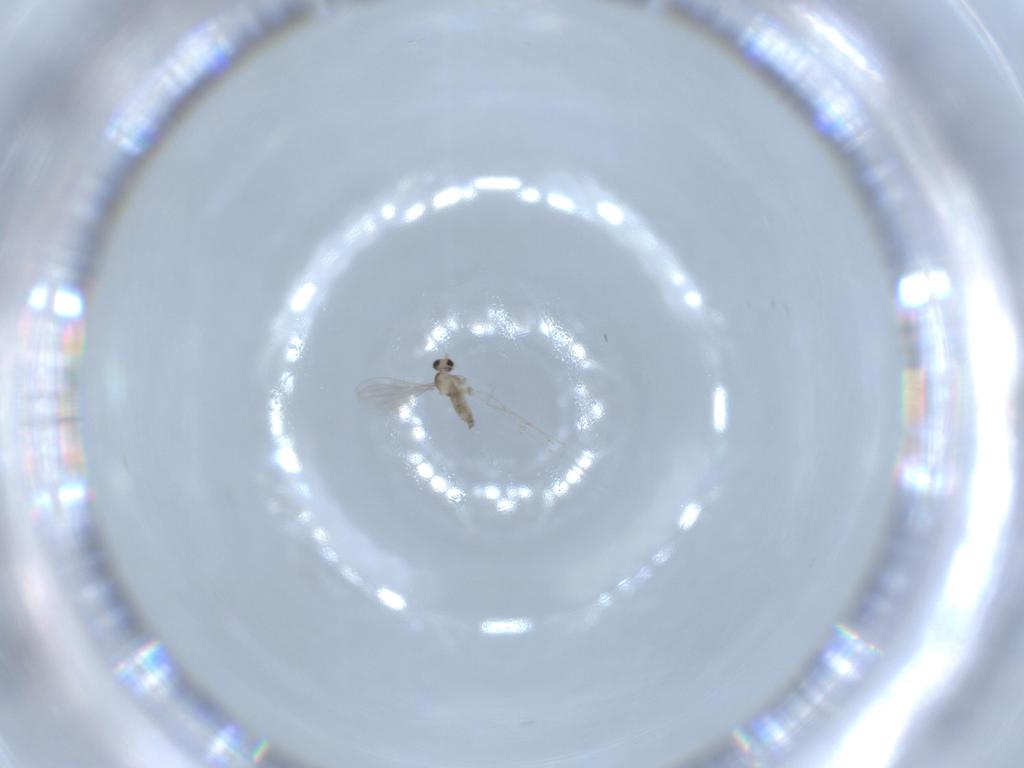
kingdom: Animalia
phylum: Arthropoda
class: Insecta
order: Diptera
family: Cecidomyiidae
